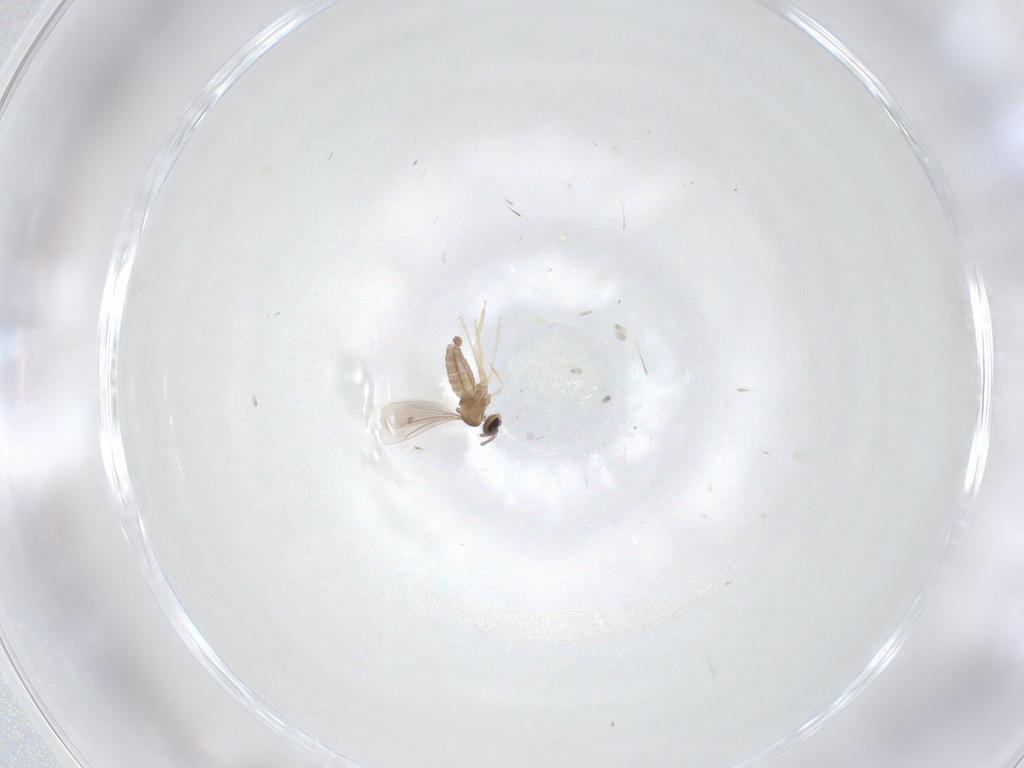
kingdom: Animalia
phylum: Arthropoda
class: Insecta
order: Diptera
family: Cecidomyiidae
